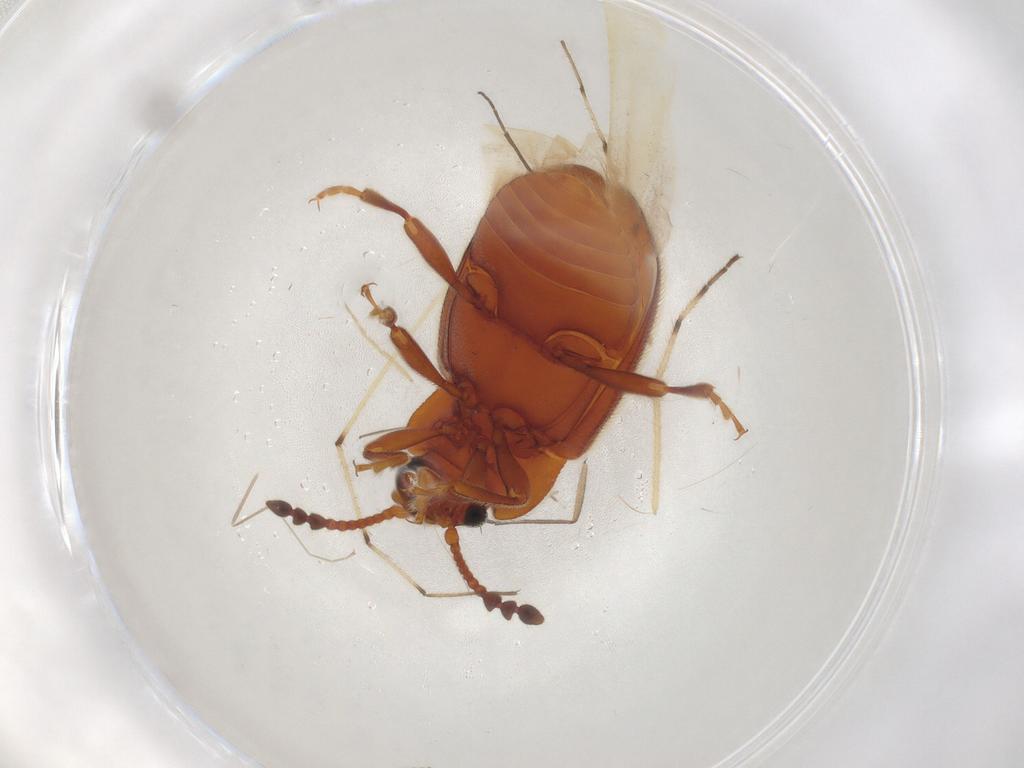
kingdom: Animalia
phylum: Arthropoda
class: Insecta
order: Coleoptera
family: Endomychidae
